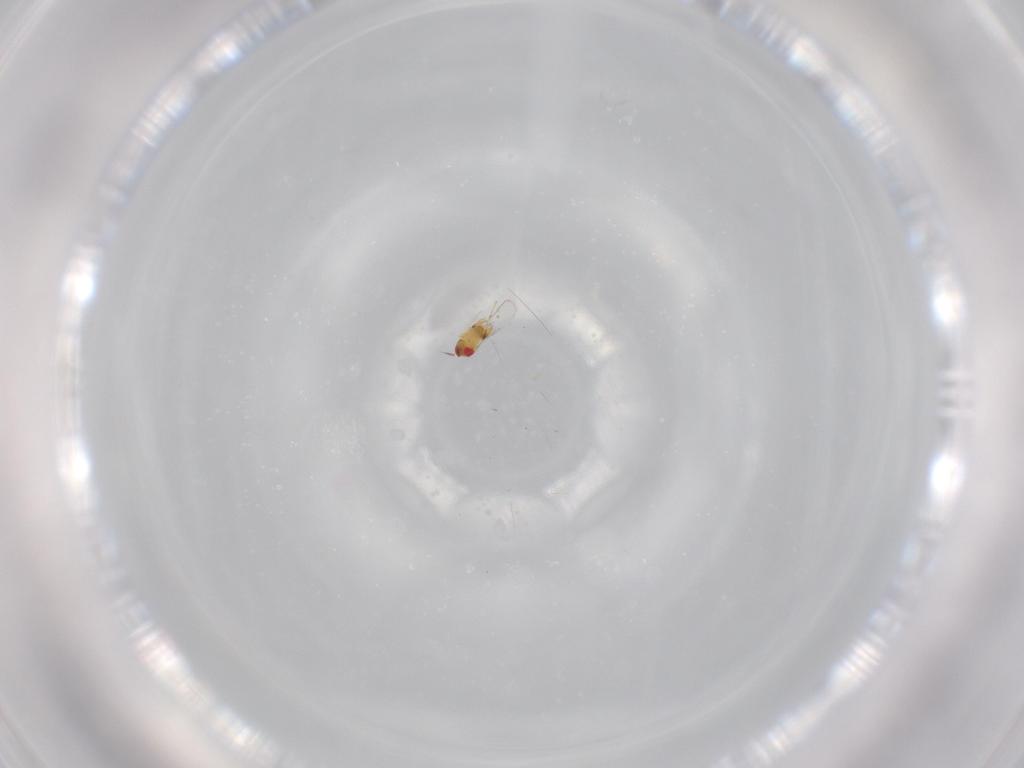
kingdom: Animalia
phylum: Arthropoda
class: Insecta
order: Hymenoptera
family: Trichogrammatidae
